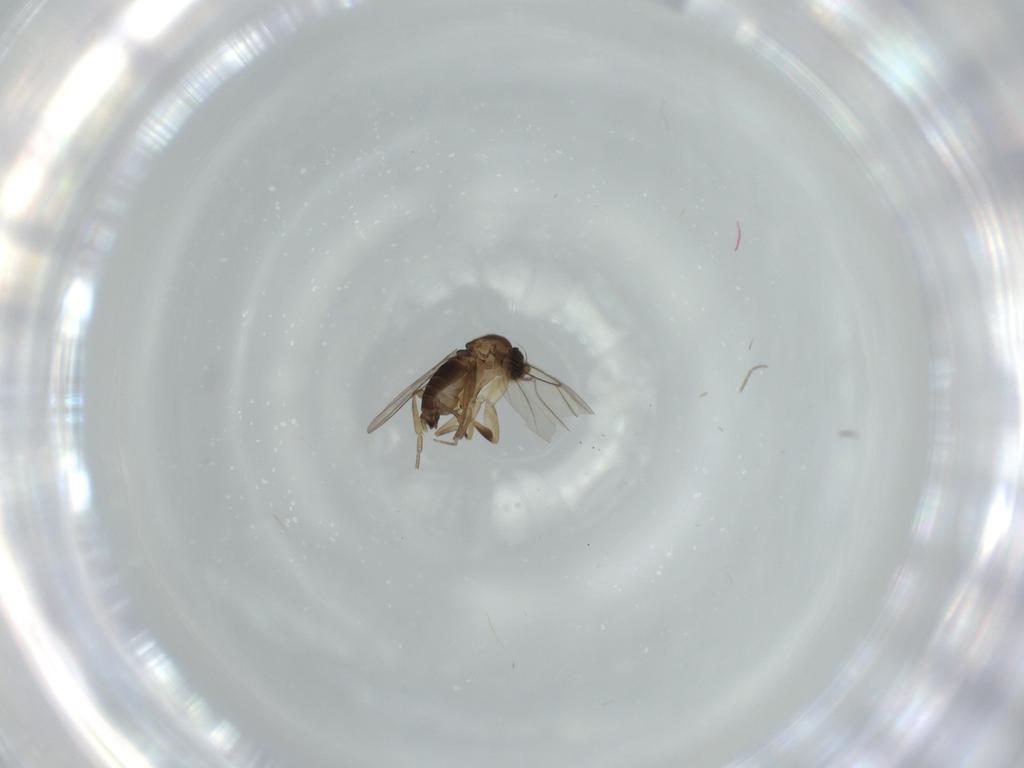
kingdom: Animalia
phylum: Arthropoda
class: Insecta
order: Diptera
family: Phoridae
